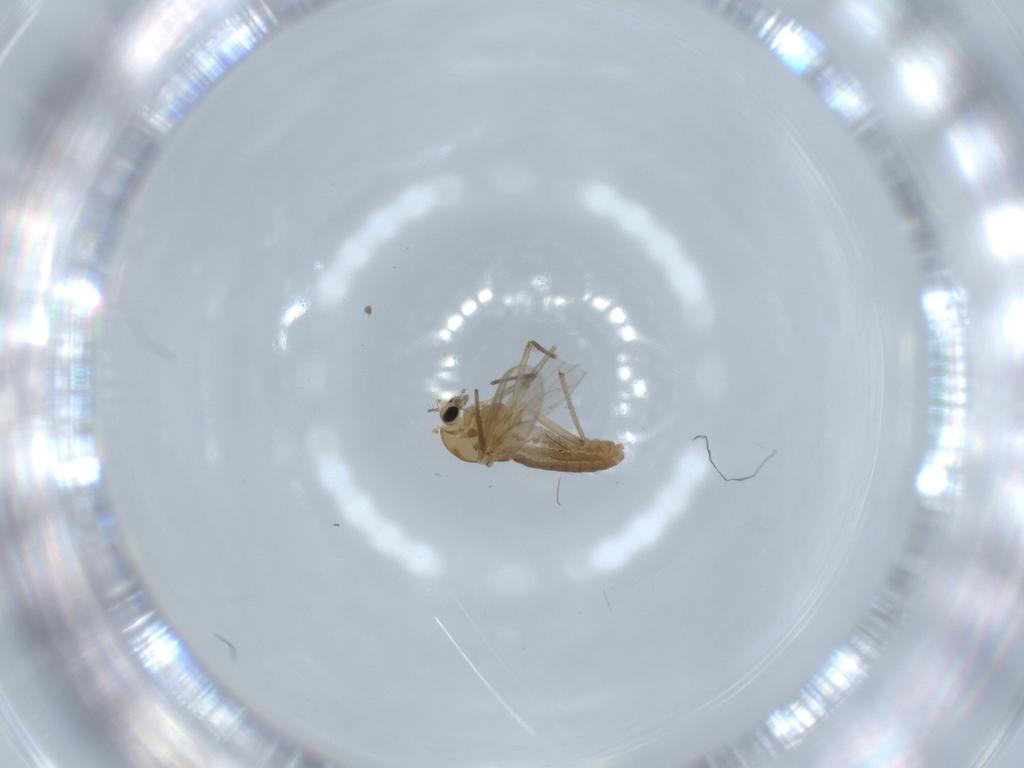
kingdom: Animalia
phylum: Arthropoda
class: Insecta
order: Diptera
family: Chironomidae
